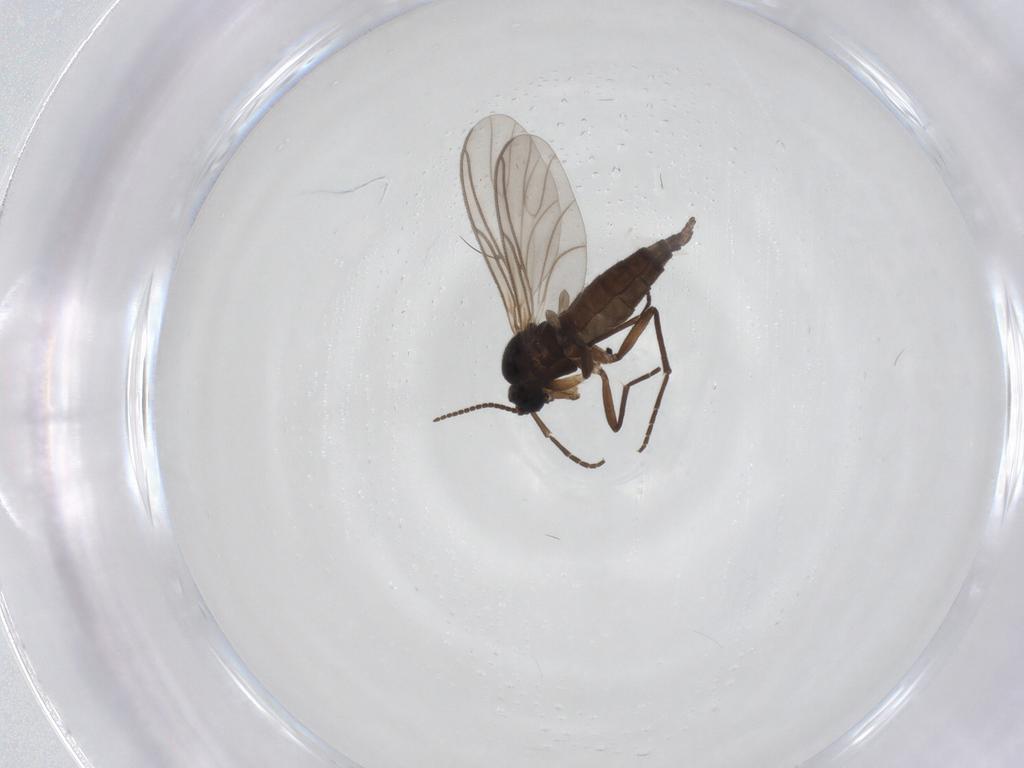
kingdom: Animalia
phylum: Arthropoda
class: Insecta
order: Diptera
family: Sciaridae
